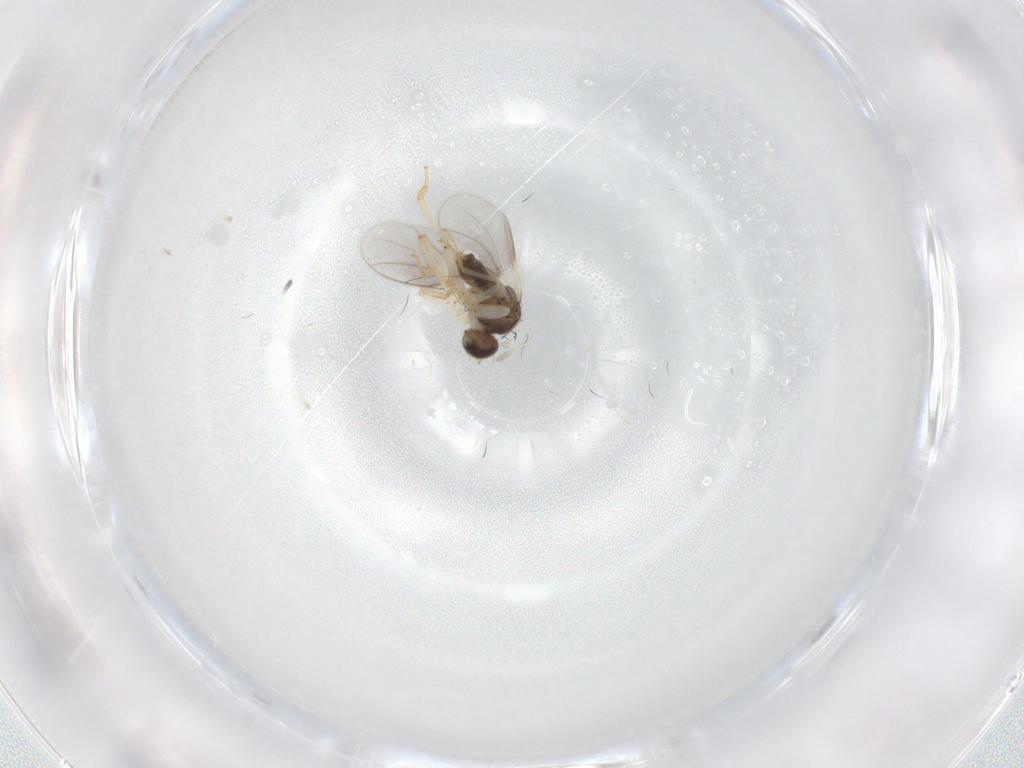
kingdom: Animalia
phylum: Arthropoda
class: Insecta
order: Diptera
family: Hybotidae
